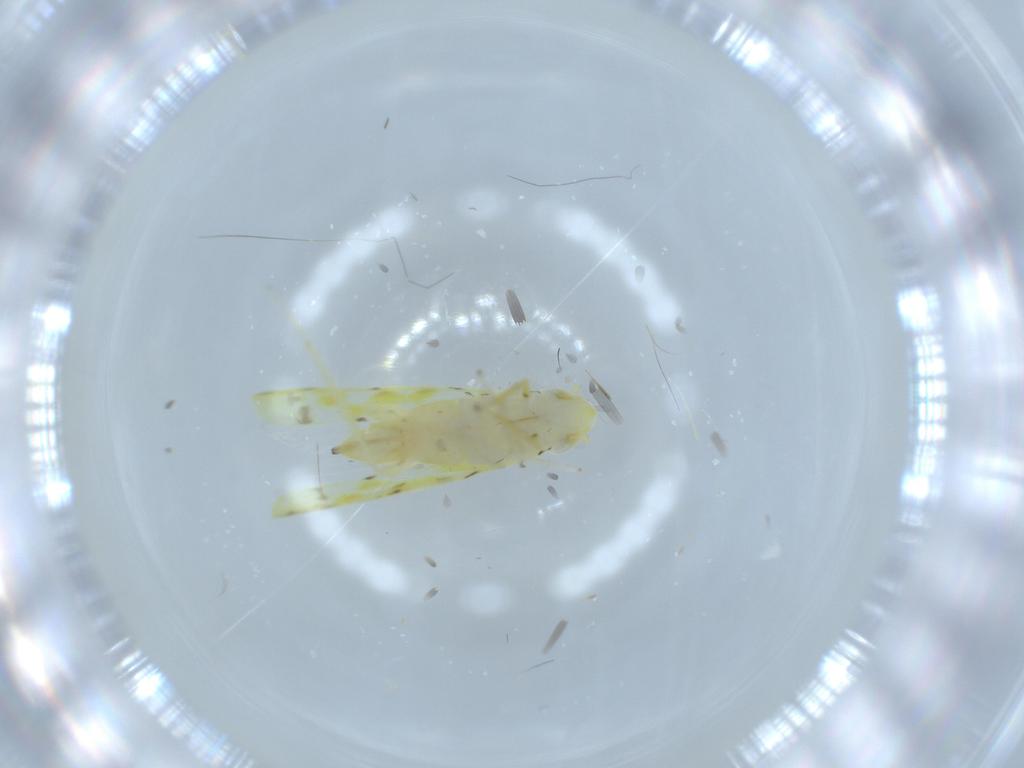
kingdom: Animalia
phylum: Arthropoda
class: Insecta
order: Hemiptera
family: Cicadellidae
